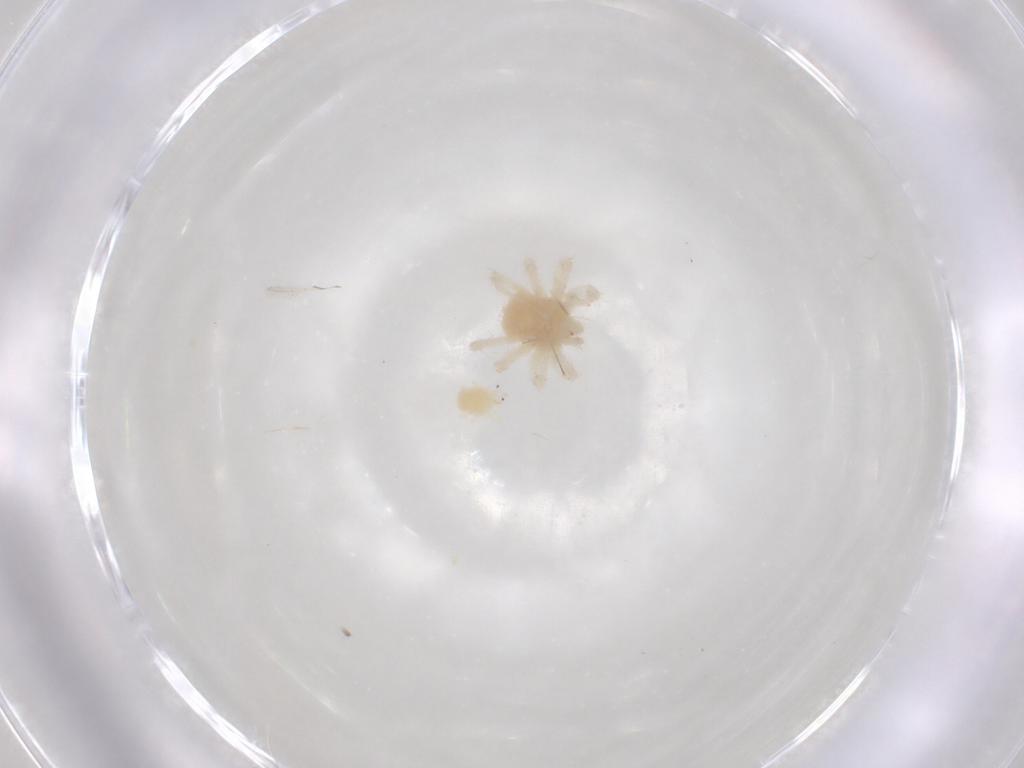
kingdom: Animalia
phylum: Arthropoda
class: Arachnida
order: Trombidiformes
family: Anystidae
